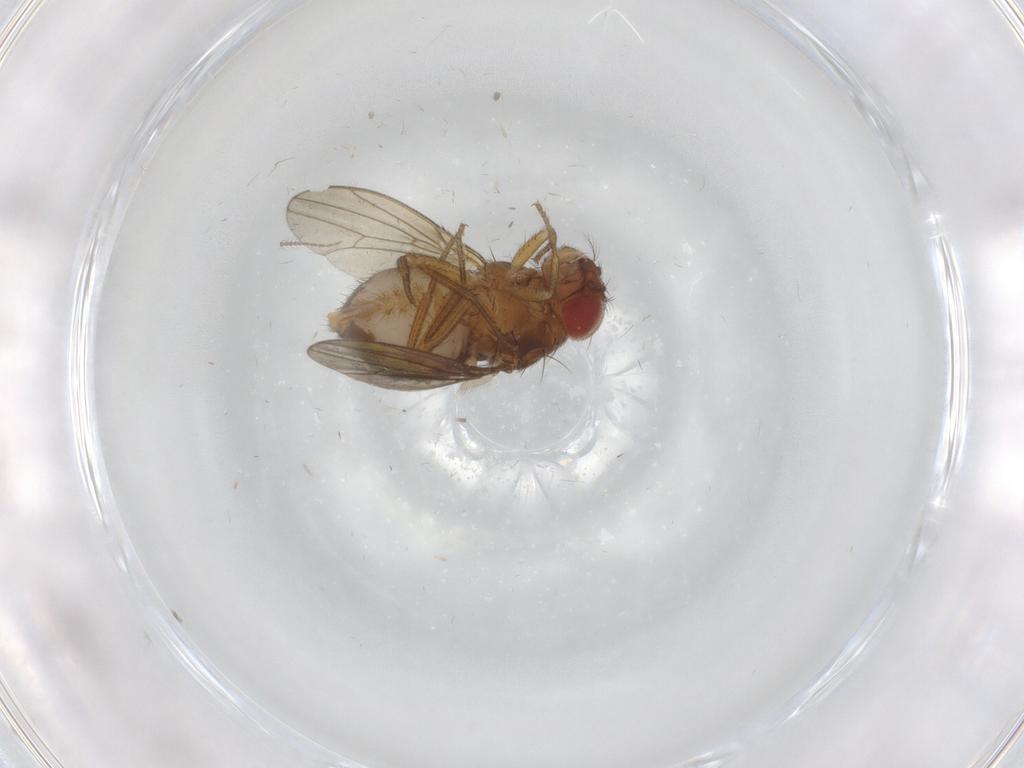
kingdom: Animalia
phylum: Arthropoda
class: Insecta
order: Diptera
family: Drosophilidae
